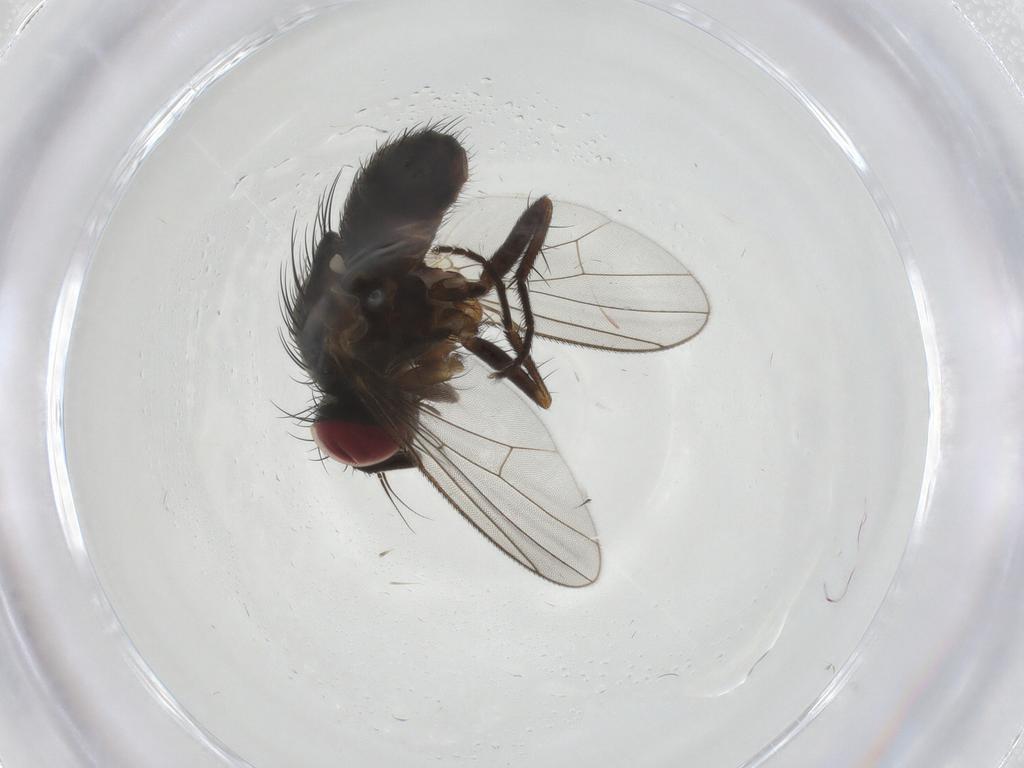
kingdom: Animalia
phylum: Arthropoda
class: Insecta
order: Diptera
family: Muscidae
